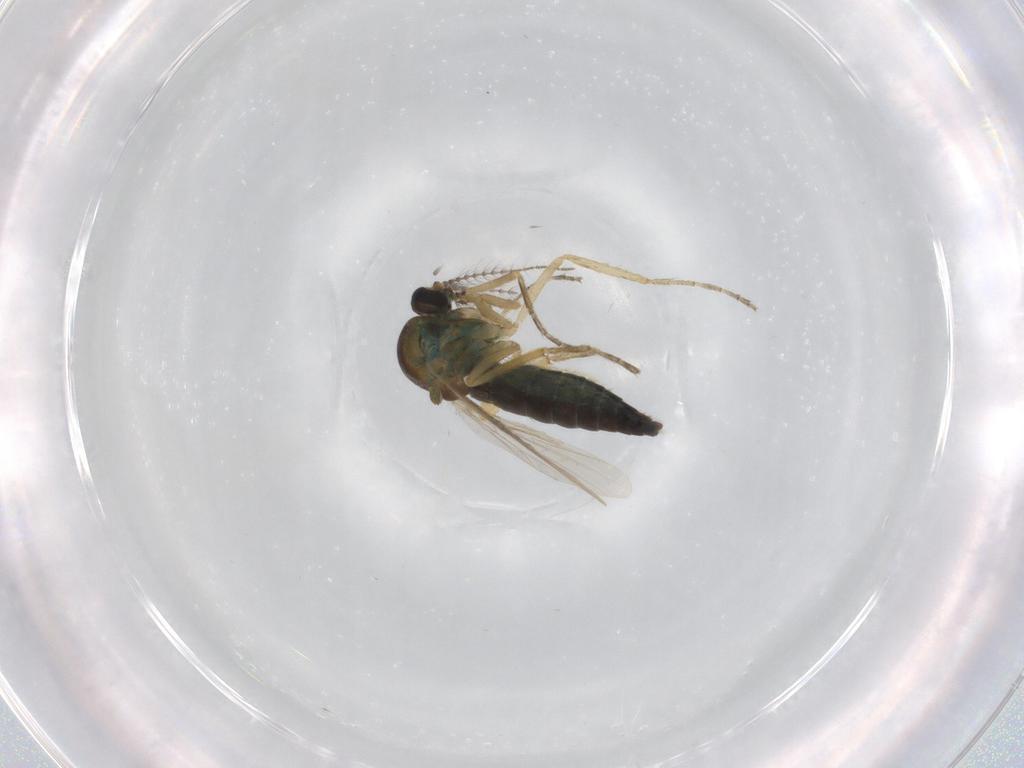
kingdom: Animalia
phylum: Arthropoda
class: Insecta
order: Diptera
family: Ceratopogonidae
